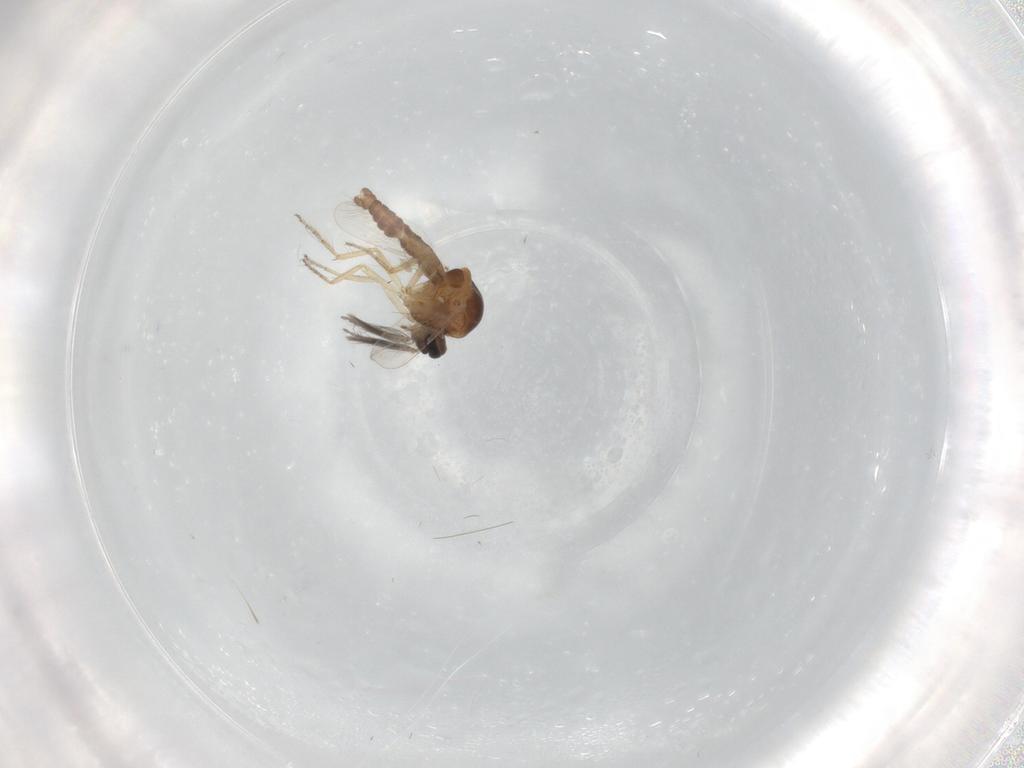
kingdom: Animalia
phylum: Arthropoda
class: Insecta
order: Diptera
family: Ceratopogonidae
